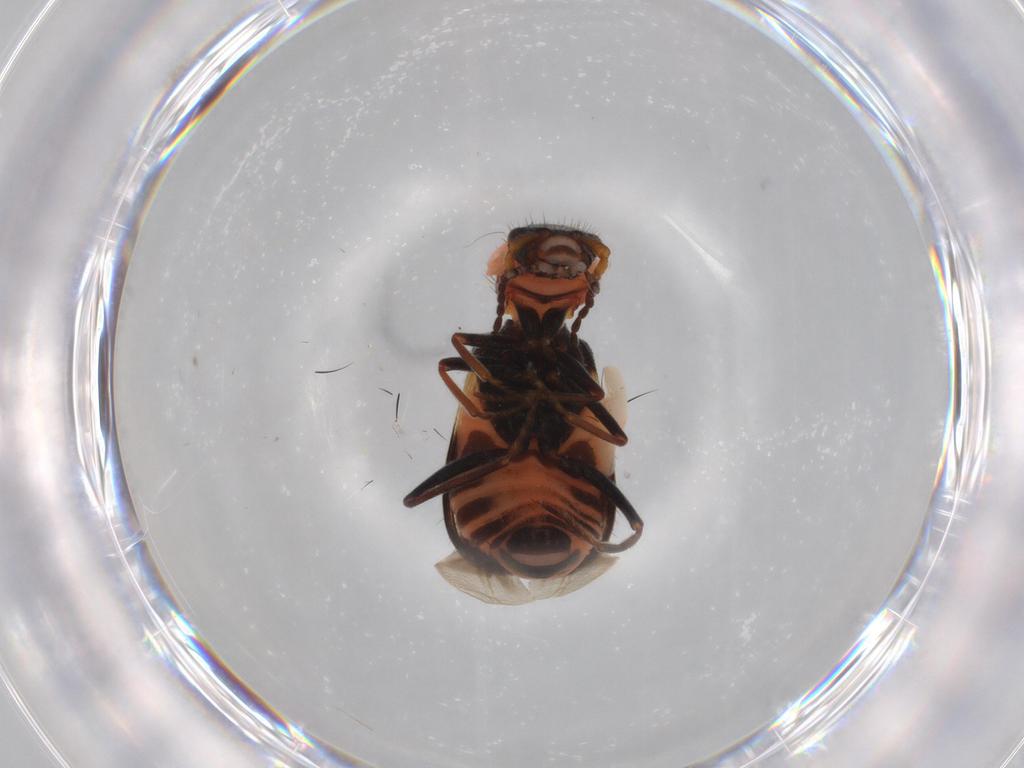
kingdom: Animalia
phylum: Arthropoda
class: Insecta
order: Coleoptera
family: Melyridae
